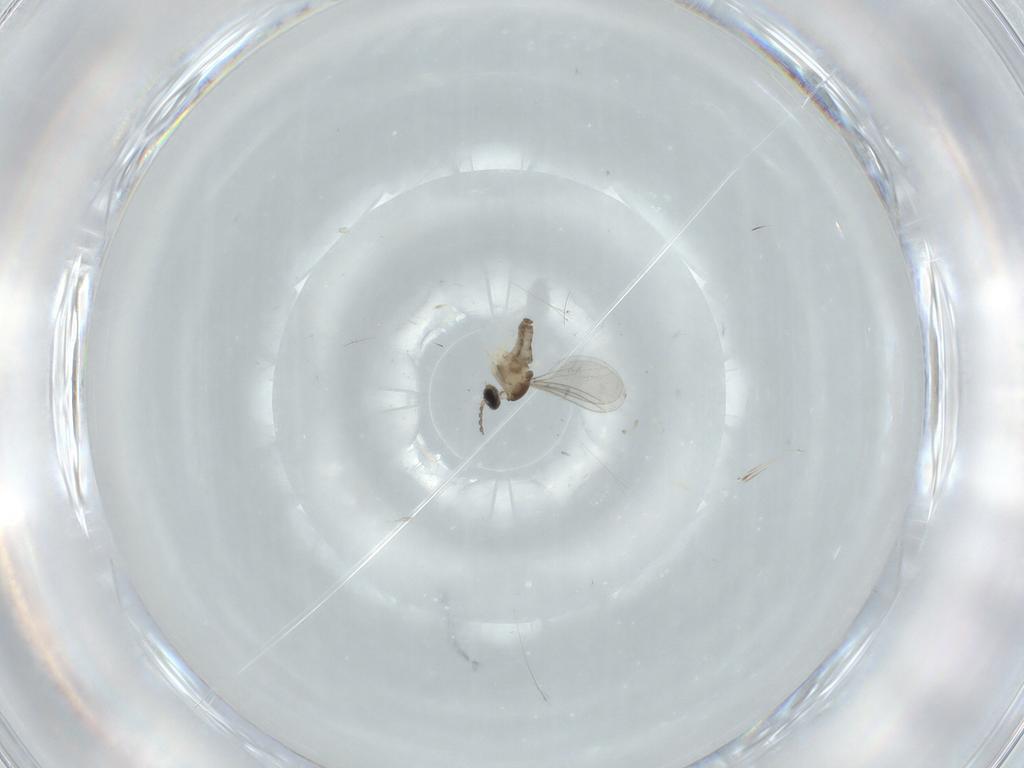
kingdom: Animalia
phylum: Arthropoda
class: Insecta
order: Diptera
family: Cecidomyiidae
